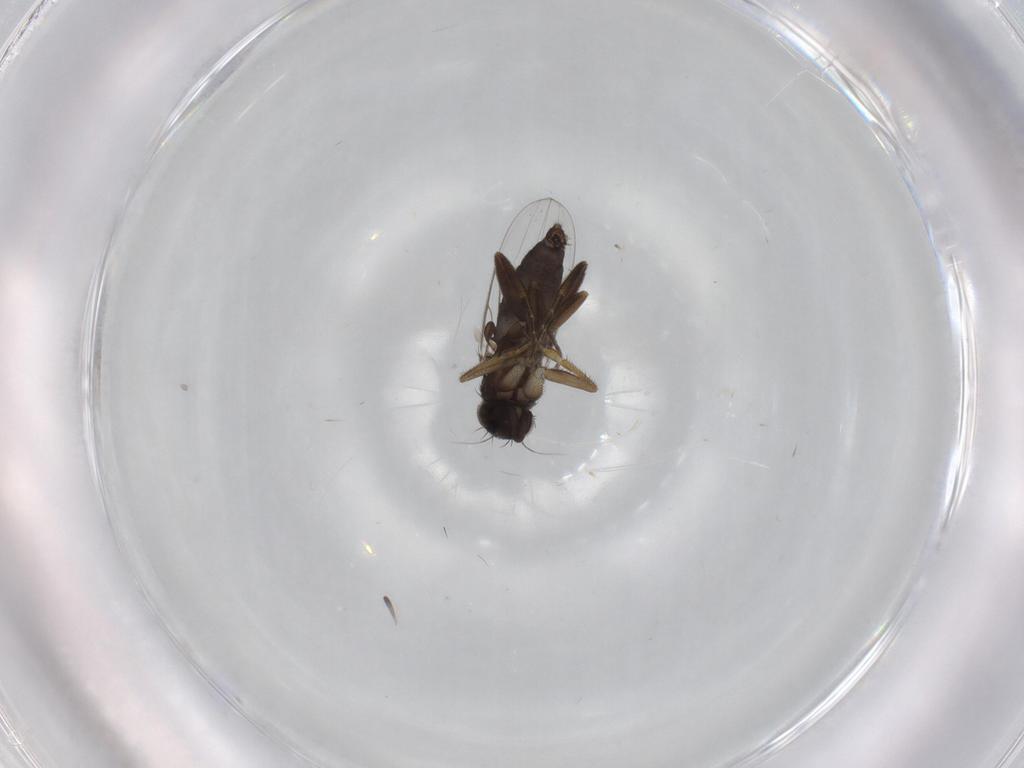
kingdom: Animalia
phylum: Arthropoda
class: Insecta
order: Diptera
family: Phoridae
